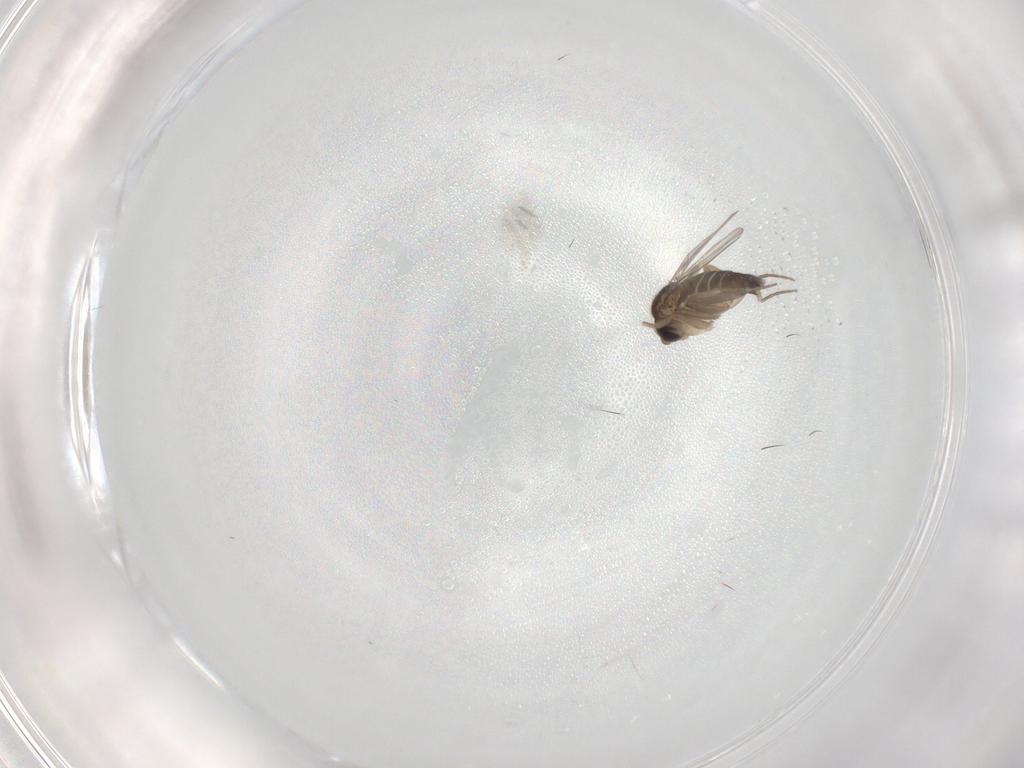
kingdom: Animalia
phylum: Arthropoda
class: Insecta
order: Diptera
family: Phoridae
